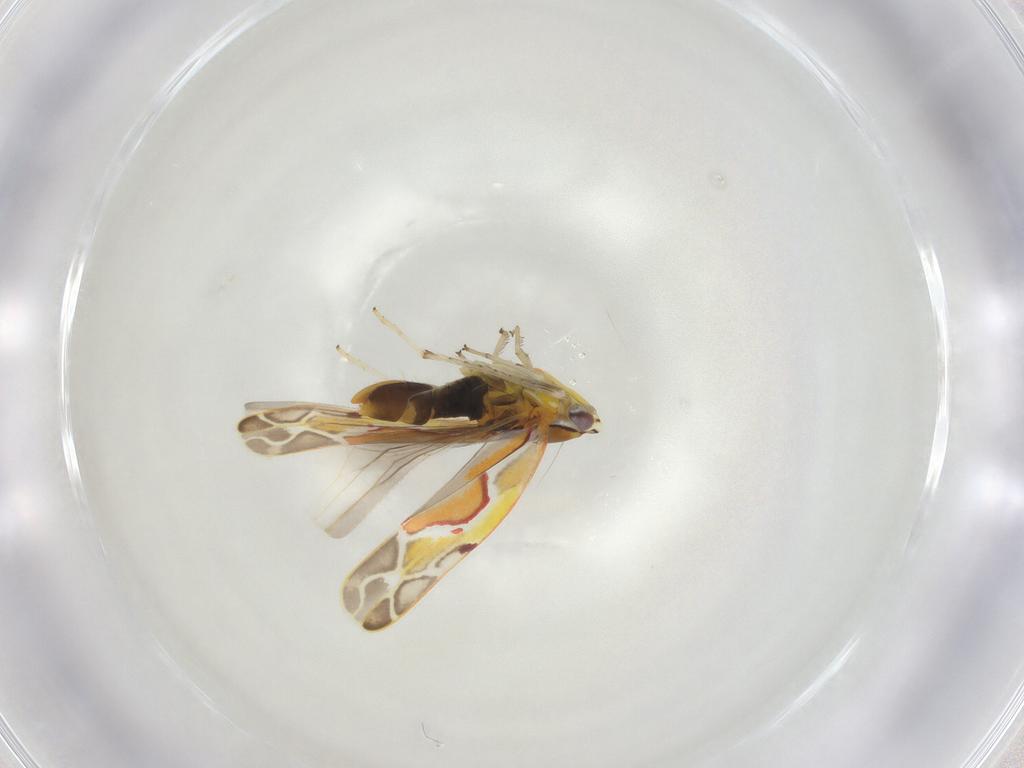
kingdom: Animalia
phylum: Arthropoda
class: Insecta
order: Hemiptera
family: Cicadellidae
